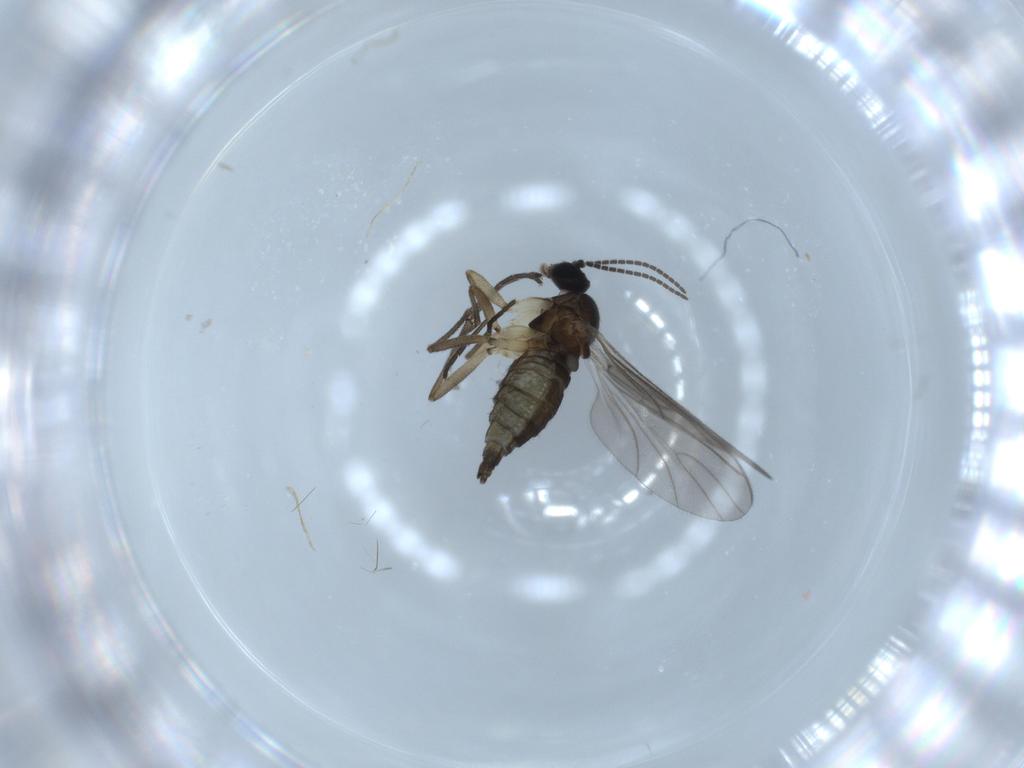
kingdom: Animalia
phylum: Arthropoda
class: Insecta
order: Diptera
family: Sciaridae
